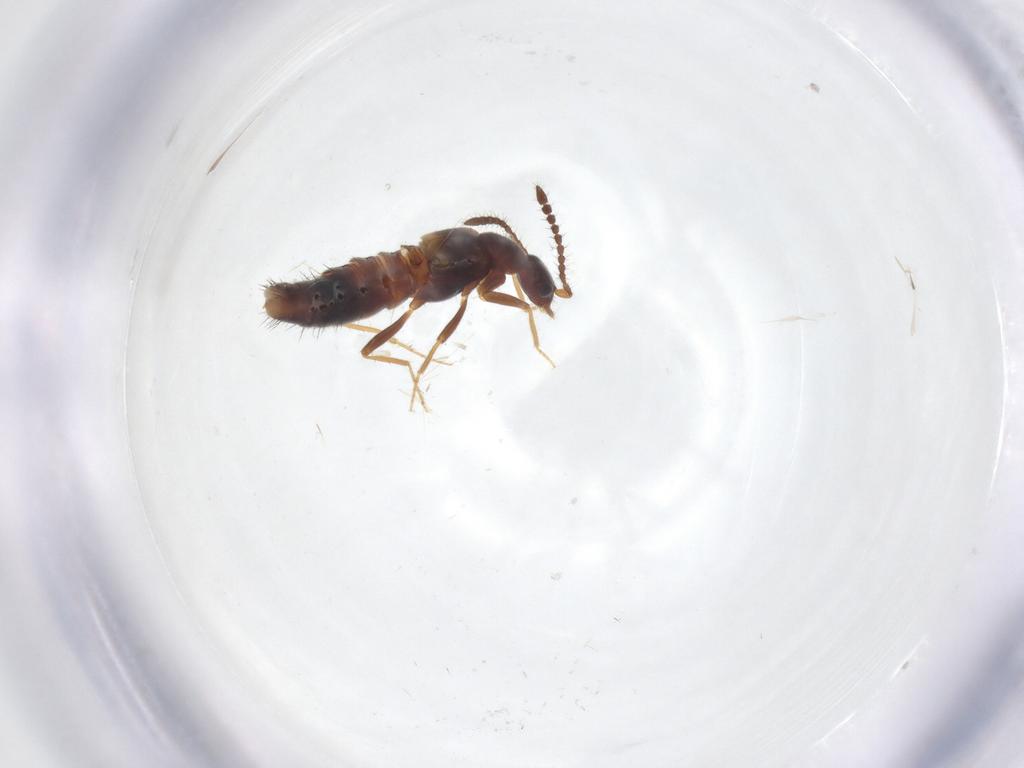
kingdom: Animalia
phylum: Arthropoda
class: Insecta
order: Coleoptera
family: Staphylinidae
